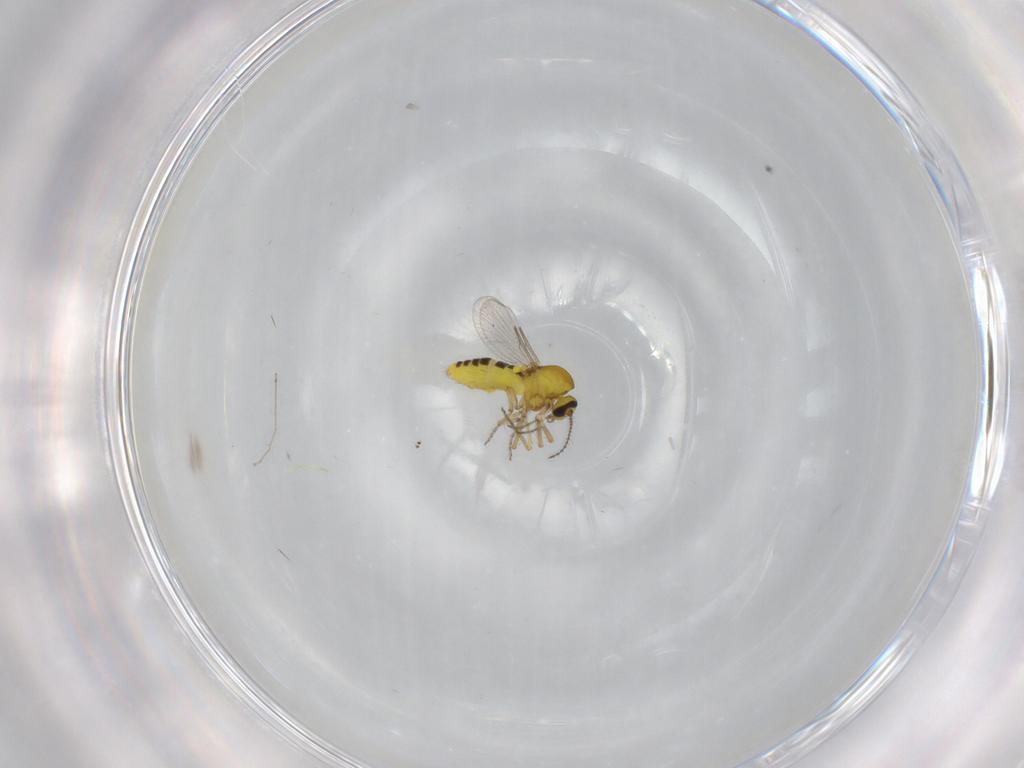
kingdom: Animalia
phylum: Arthropoda
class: Insecta
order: Diptera
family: Ceratopogonidae
